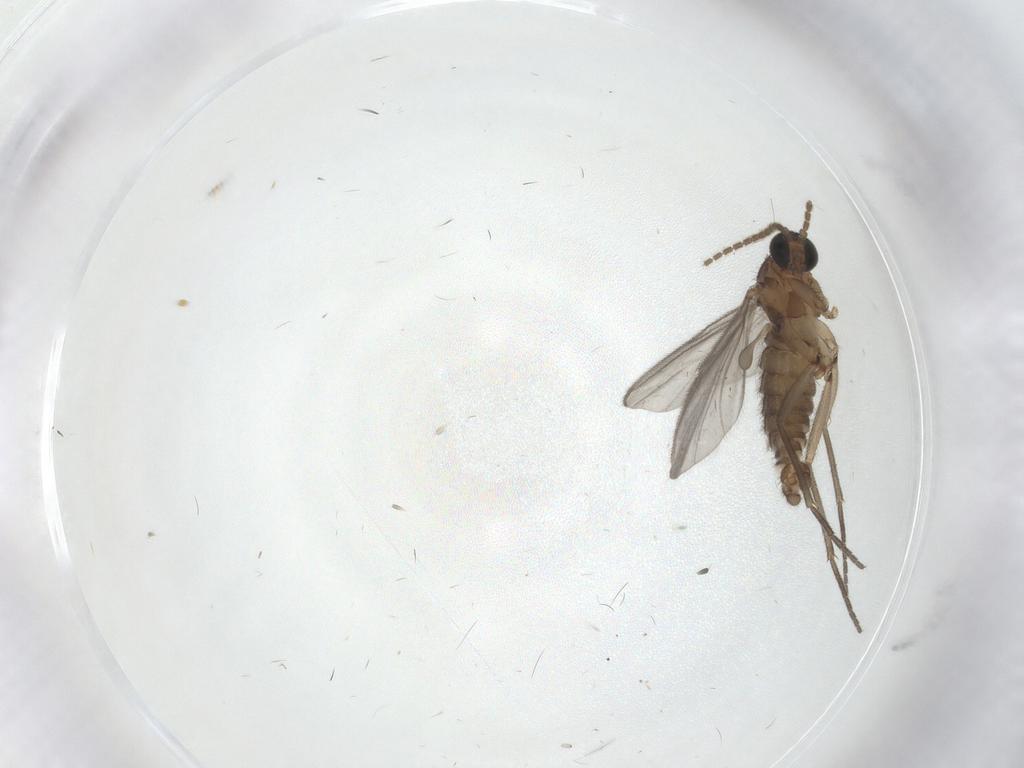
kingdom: Animalia
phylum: Arthropoda
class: Insecta
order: Diptera
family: Sciaridae
